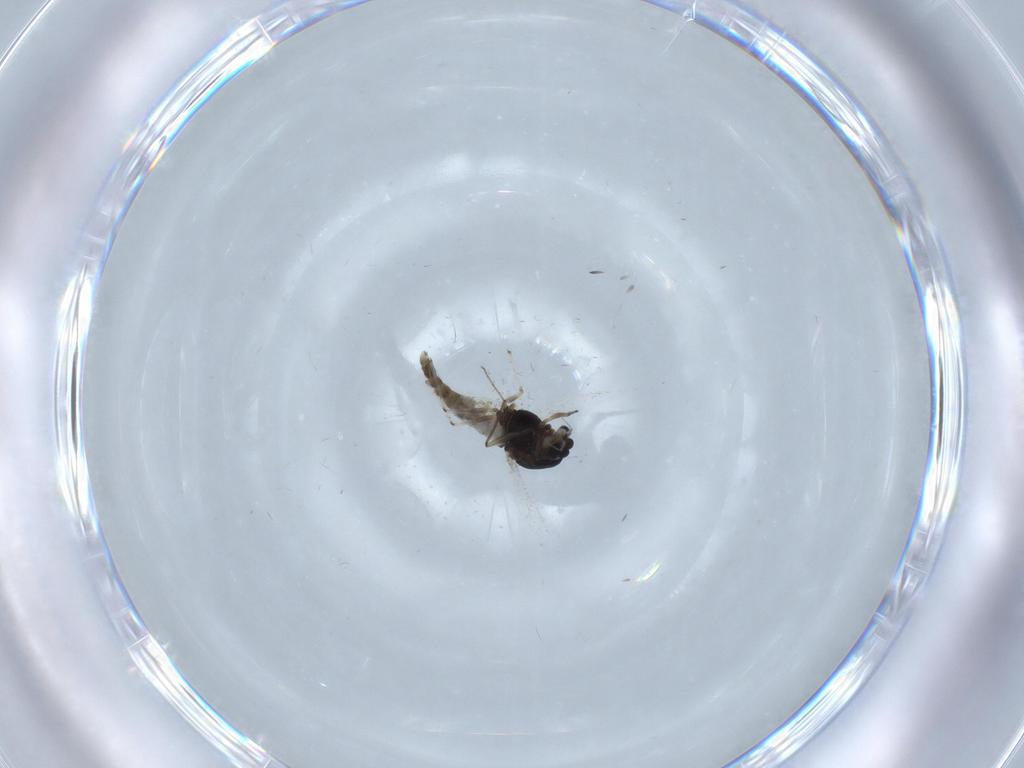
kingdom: Animalia
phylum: Arthropoda
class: Insecta
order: Diptera
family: Chironomidae
